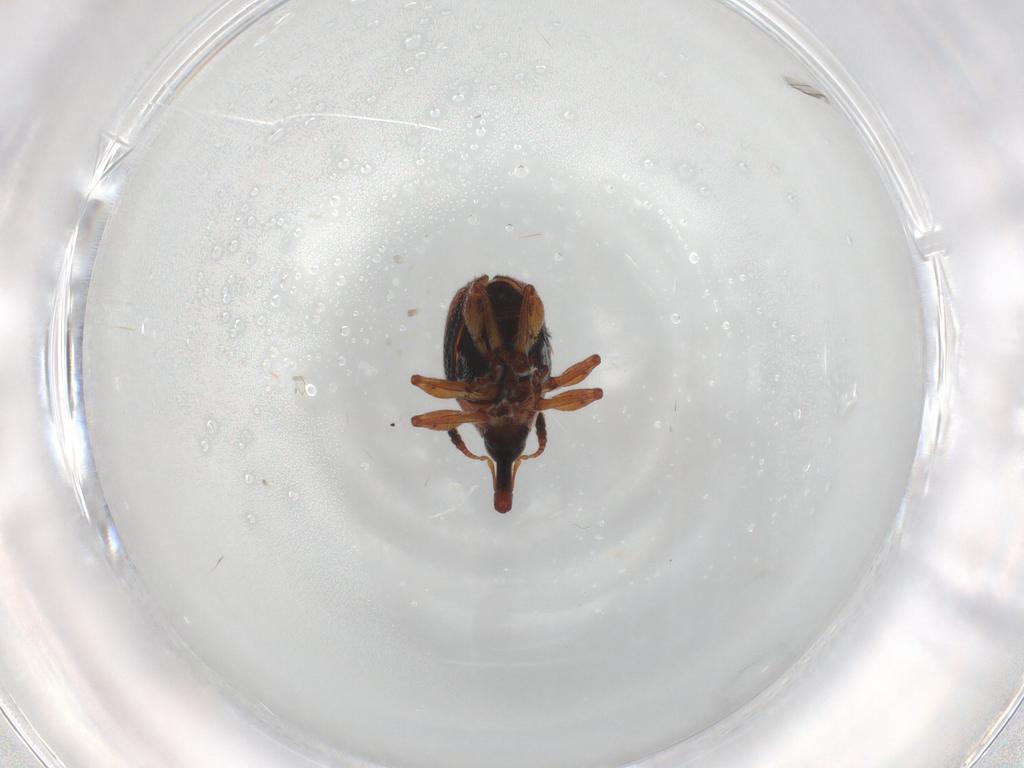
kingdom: Animalia
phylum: Arthropoda
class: Insecta
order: Coleoptera
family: Brentidae
